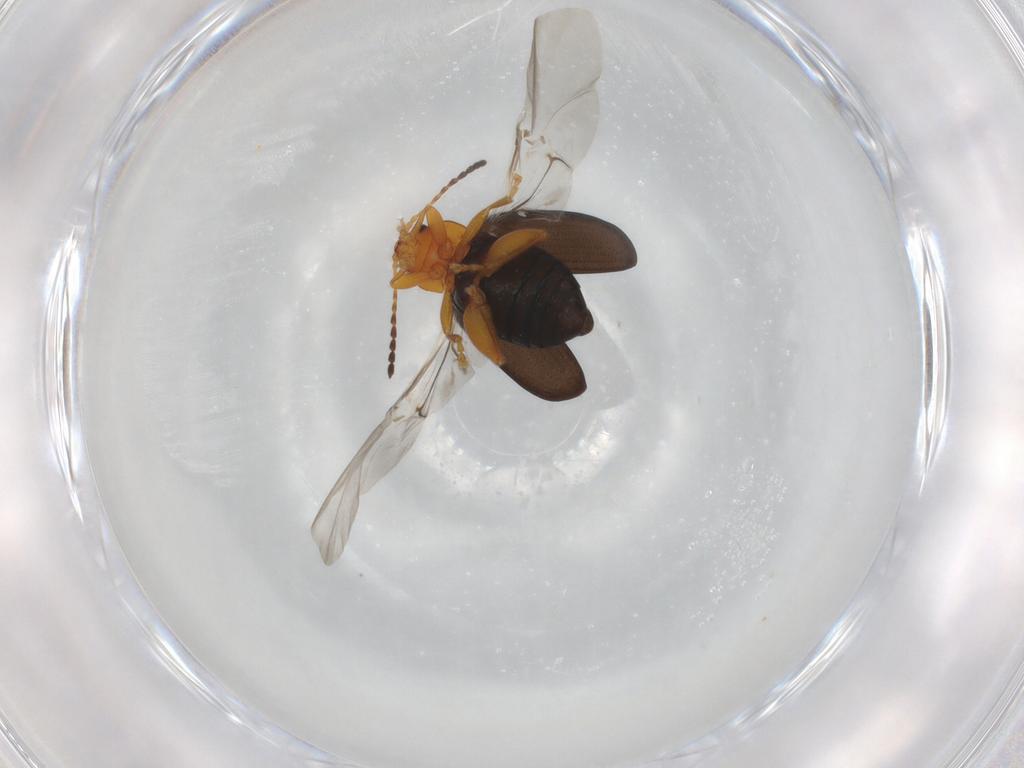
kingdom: Animalia
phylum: Arthropoda
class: Insecta
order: Coleoptera
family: Chrysomelidae
